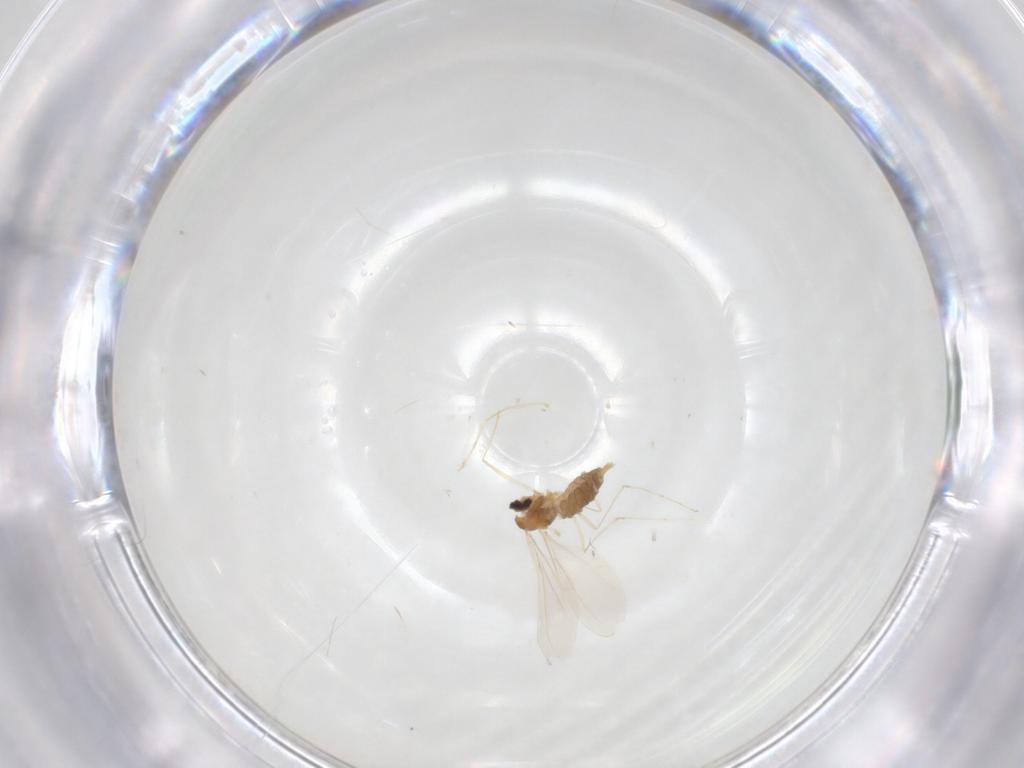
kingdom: Animalia
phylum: Arthropoda
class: Insecta
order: Diptera
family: Cecidomyiidae
